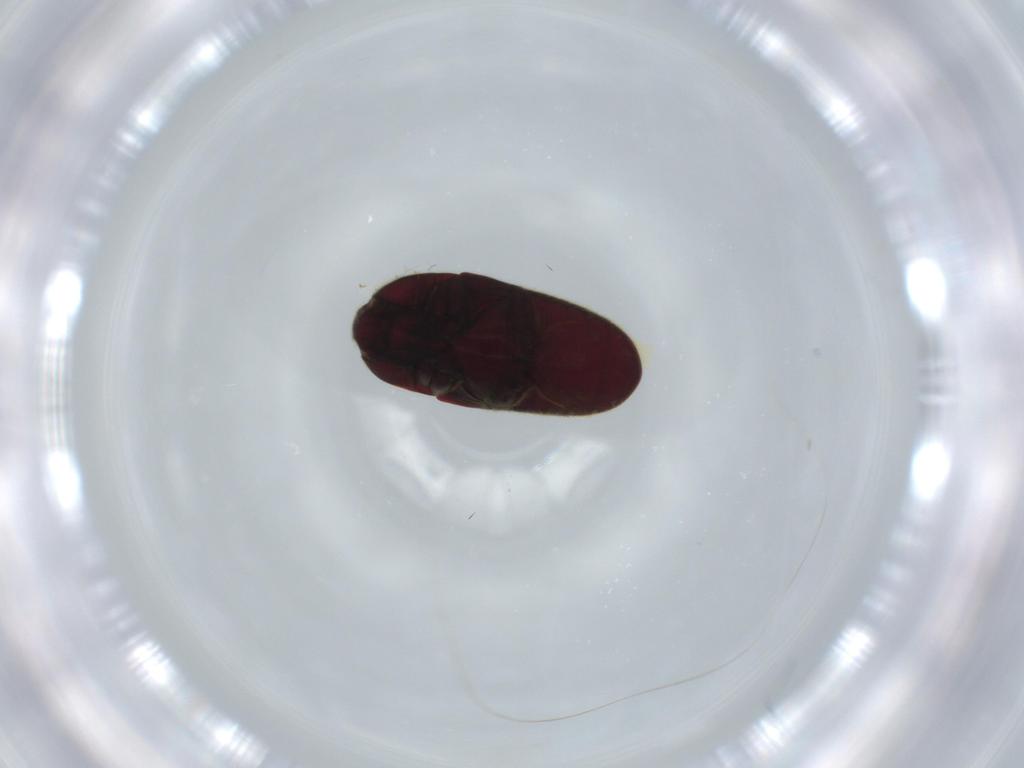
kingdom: Animalia
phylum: Arthropoda
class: Insecta
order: Coleoptera
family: Throscidae
